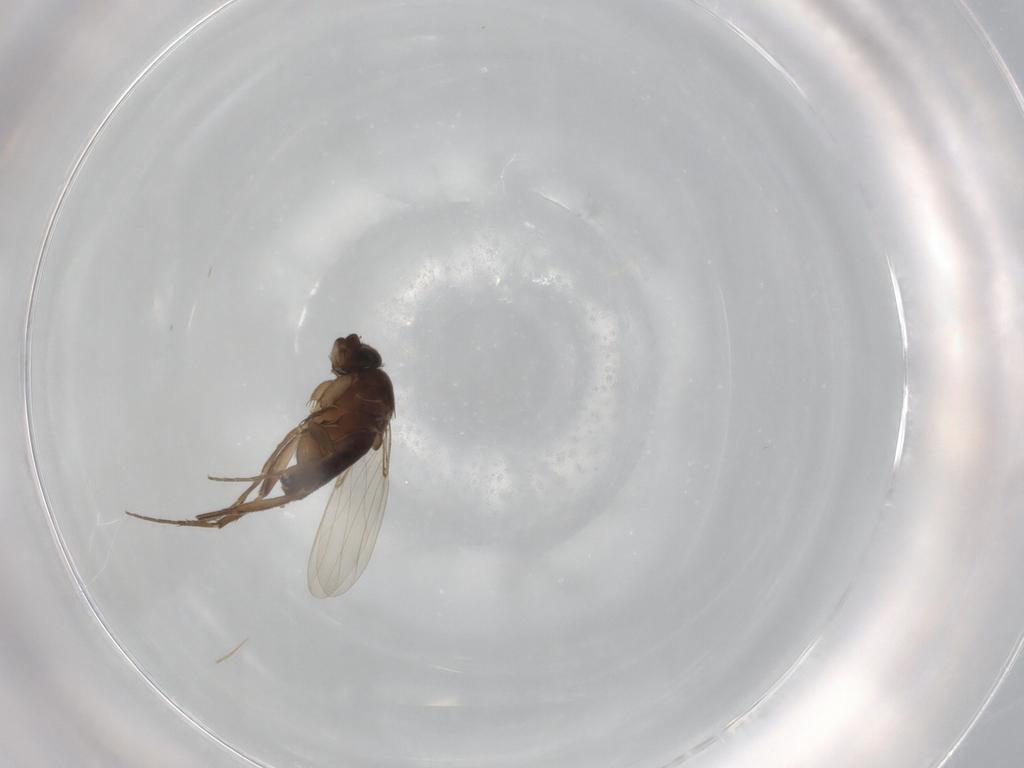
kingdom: Animalia
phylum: Arthropoda
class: Insecta
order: Diptera
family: Phoridae
